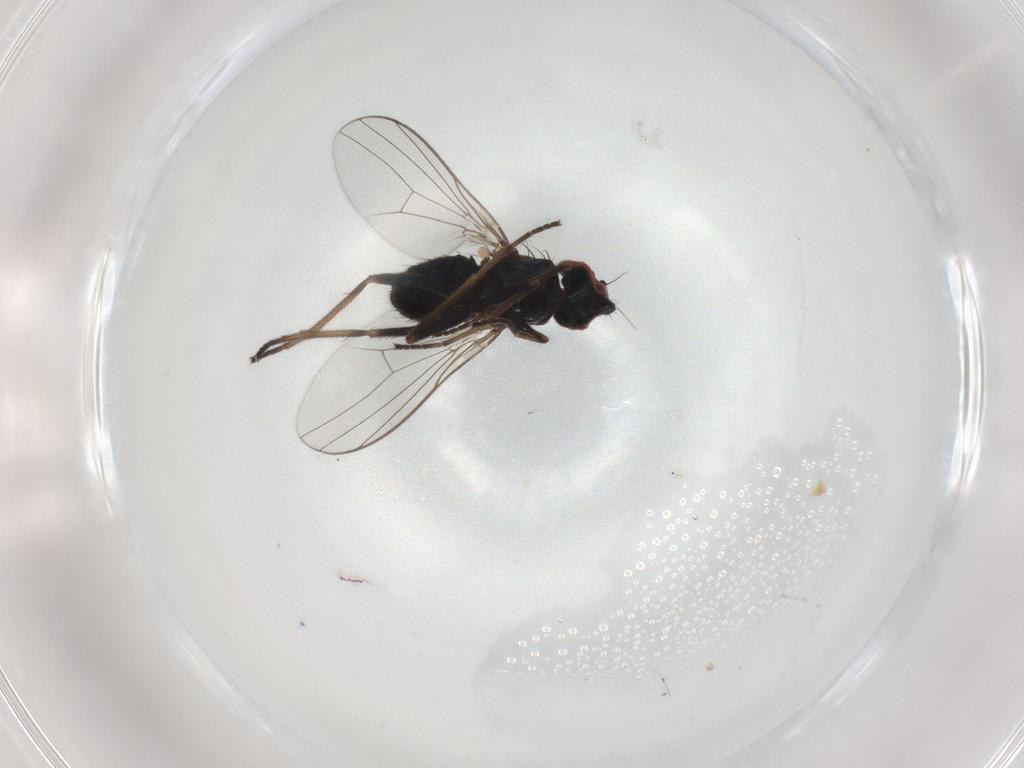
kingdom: Animalia
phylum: Arthropoda
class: Insecta
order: Diptera
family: Dolichopodidae
